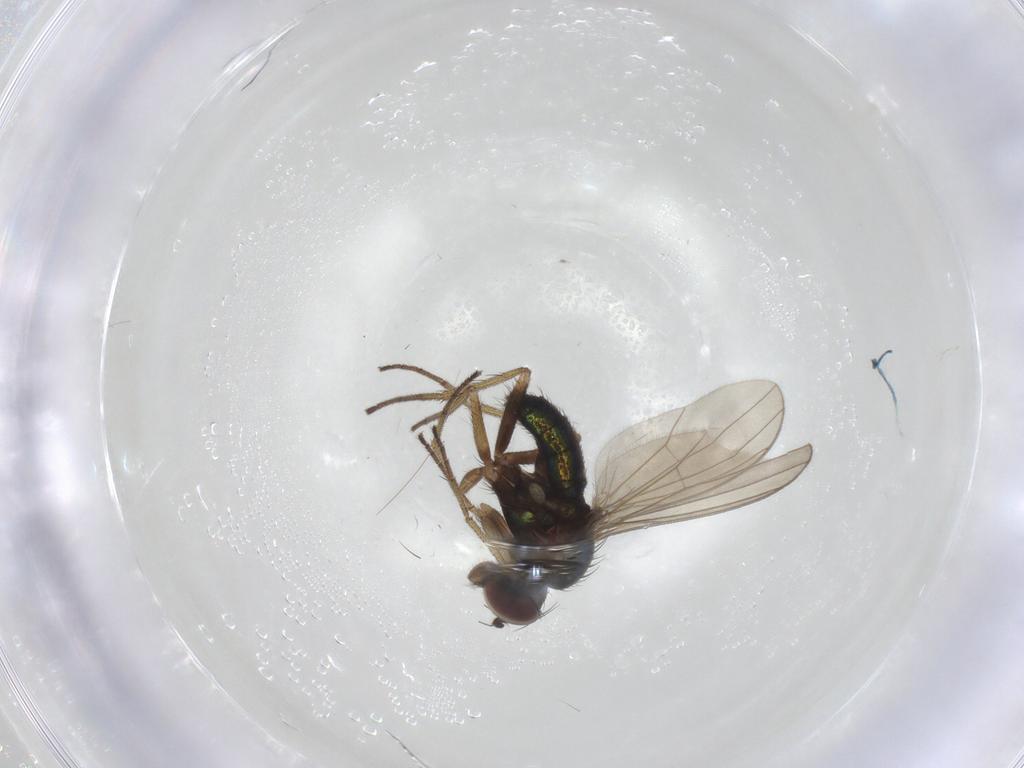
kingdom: Animalia
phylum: Arthropoda
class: Insecta
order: Diptera
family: Dolichopodidae
